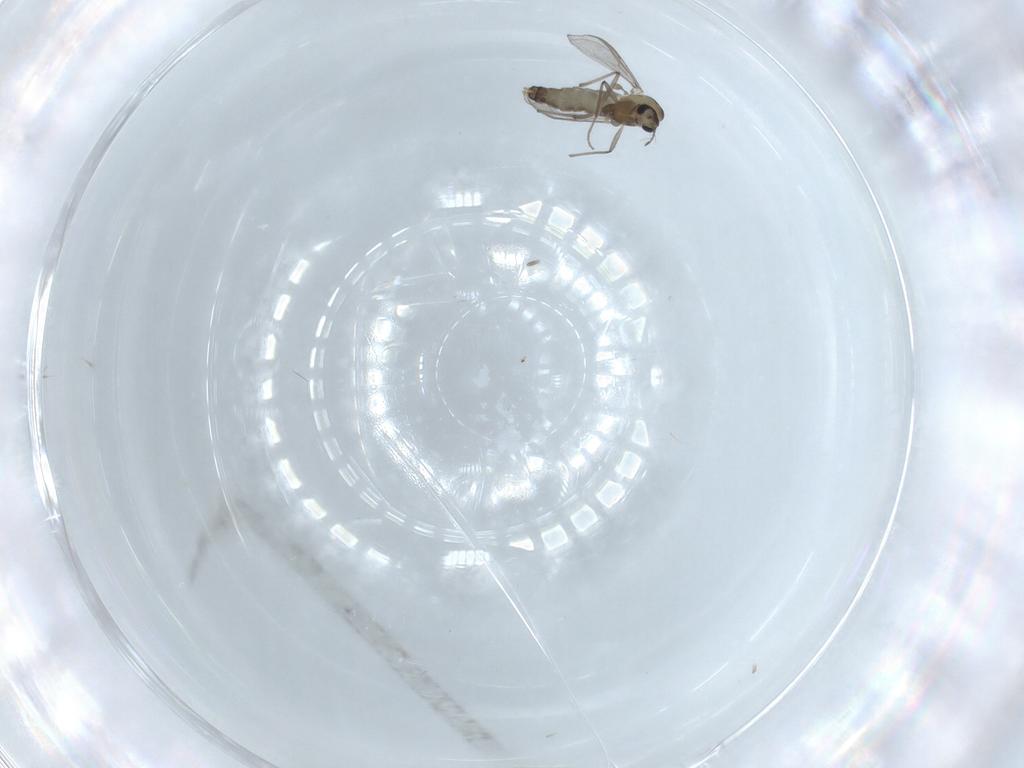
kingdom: Animalia
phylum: Arthropoda
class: Insecta
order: Diptera
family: Chironomidae
